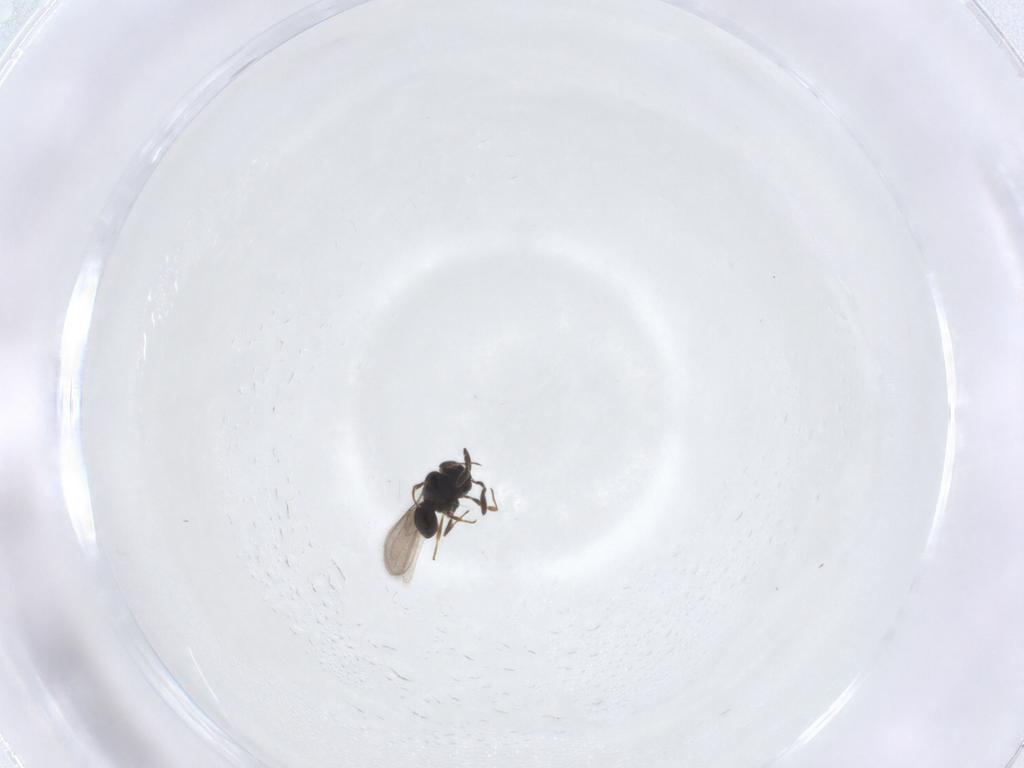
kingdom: Animalia
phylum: Arthropoda
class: Insecta
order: Hymenoptera
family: Scelionidae
